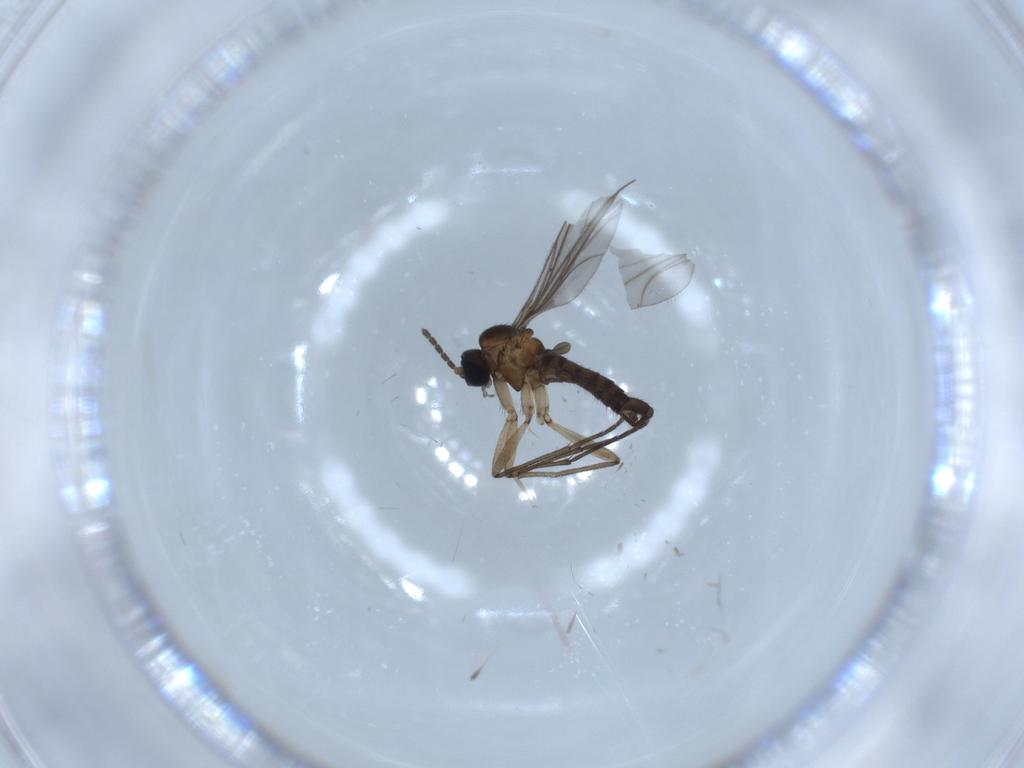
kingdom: Animalia
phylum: Arthropoda
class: Insecta
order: Diptera
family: Sciaridae
